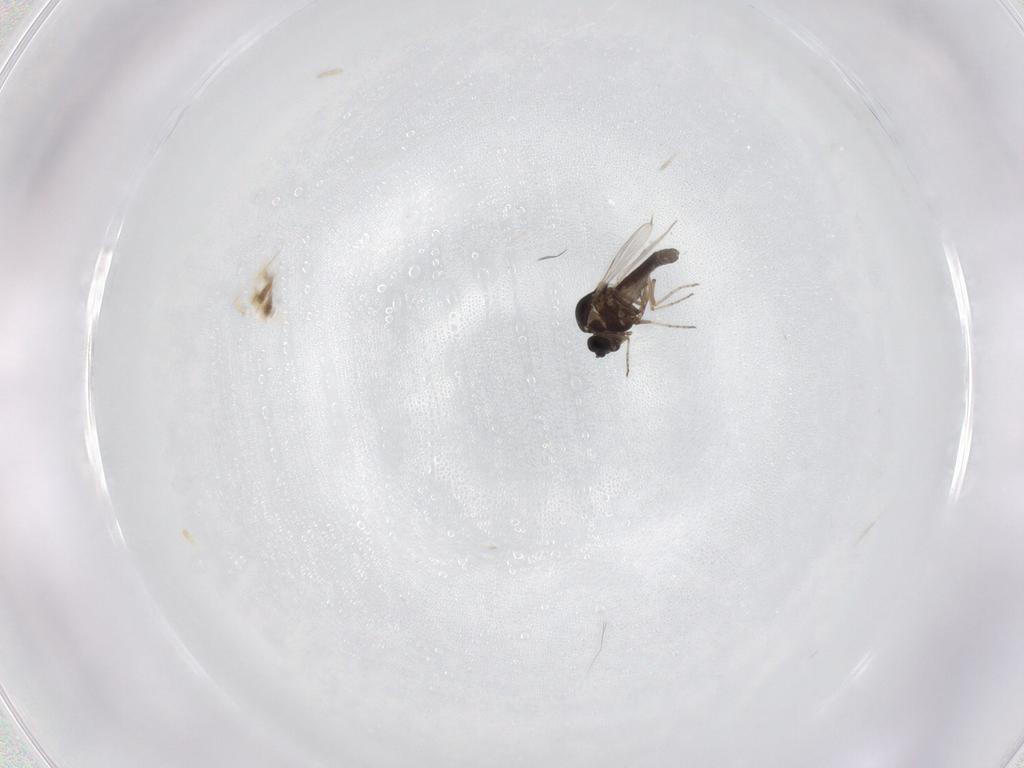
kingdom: Animalia
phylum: Arthropoda
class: Insecta
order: Diptera
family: Ceratopogonidae
